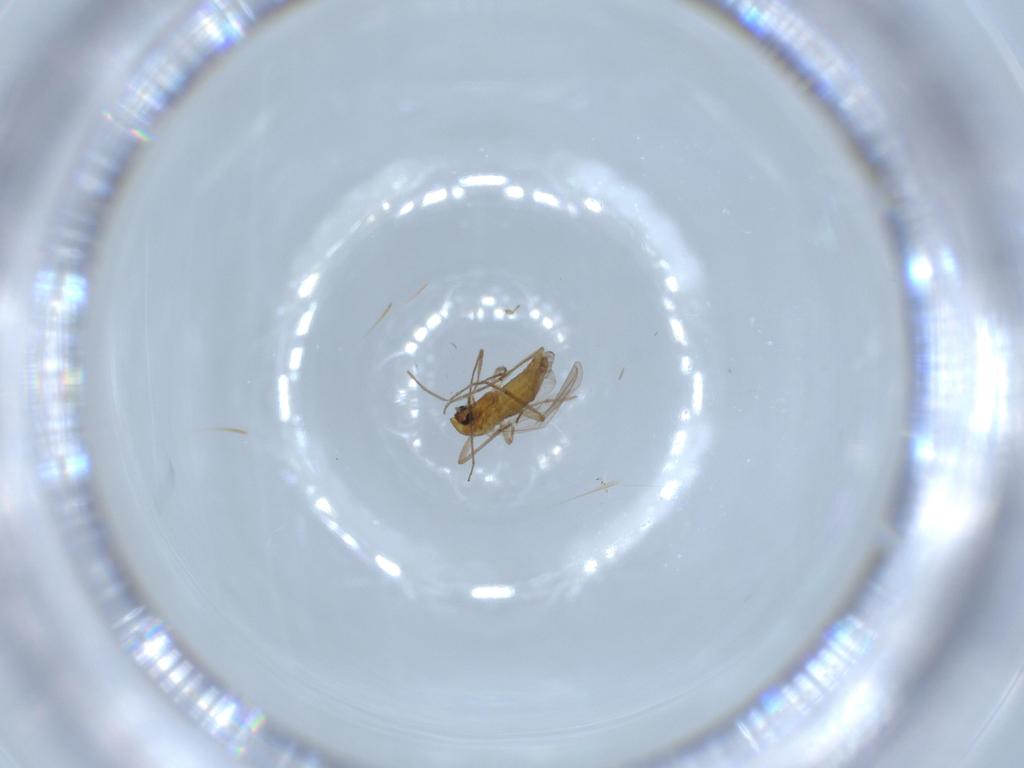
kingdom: Animalia
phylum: Arthropoda
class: Insecta
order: Diptera
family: Chironomidae
